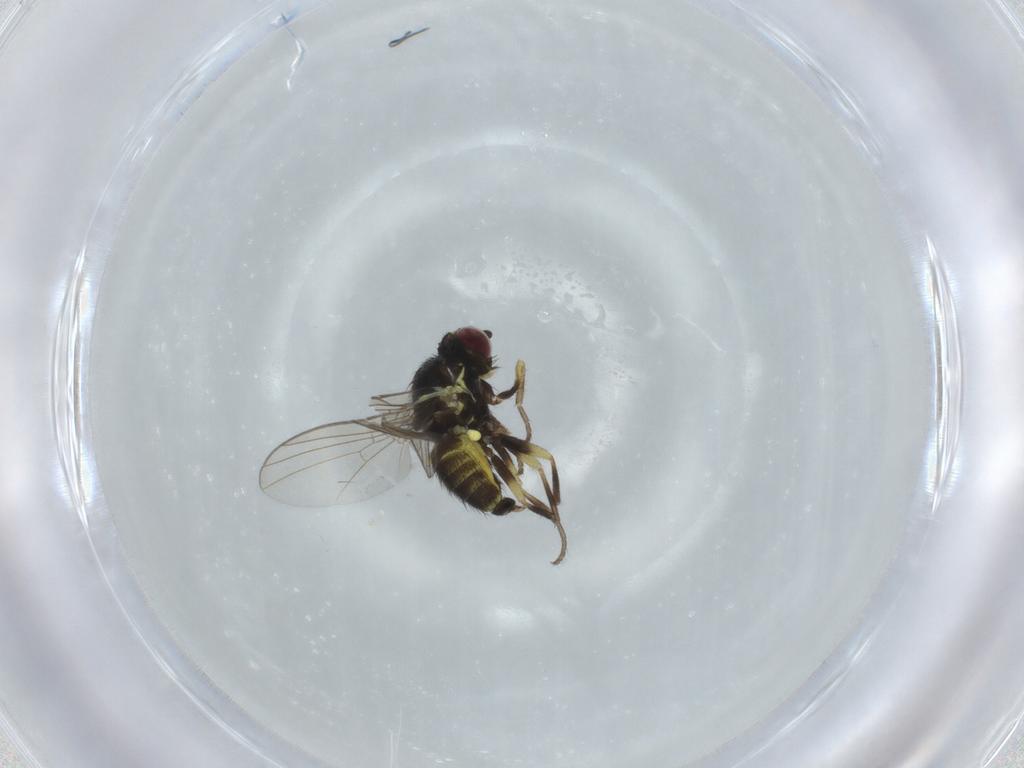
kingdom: Animalia
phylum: Arthropoda
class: Insecta
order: Diptera
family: Agromyzidae
